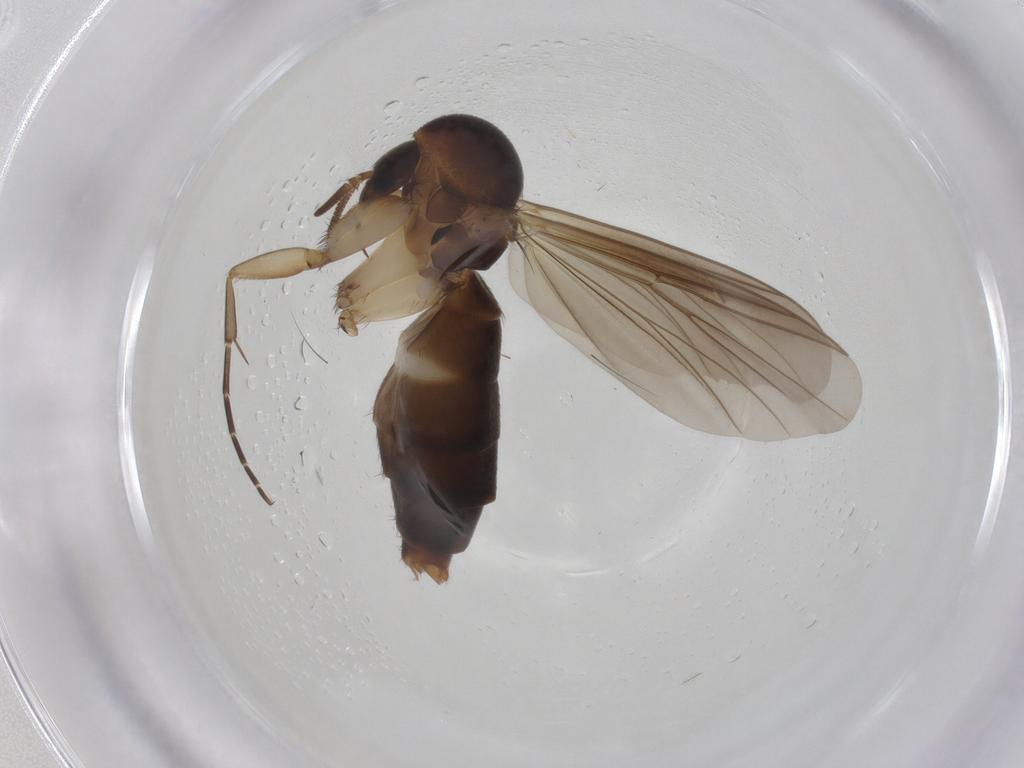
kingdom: Animalia
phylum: Arthropoda
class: Insecta
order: Diptera
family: Mycetophilidae
